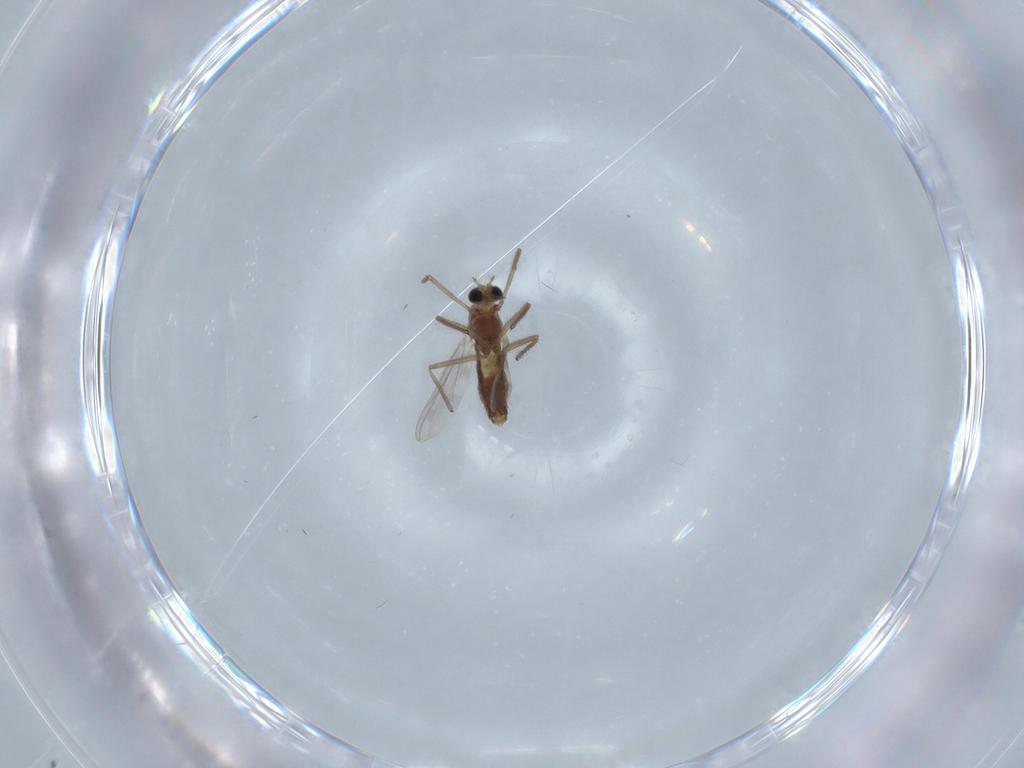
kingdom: Animalia
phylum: Arthropoda
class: Insecta
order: Diptera
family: Chironomidae
